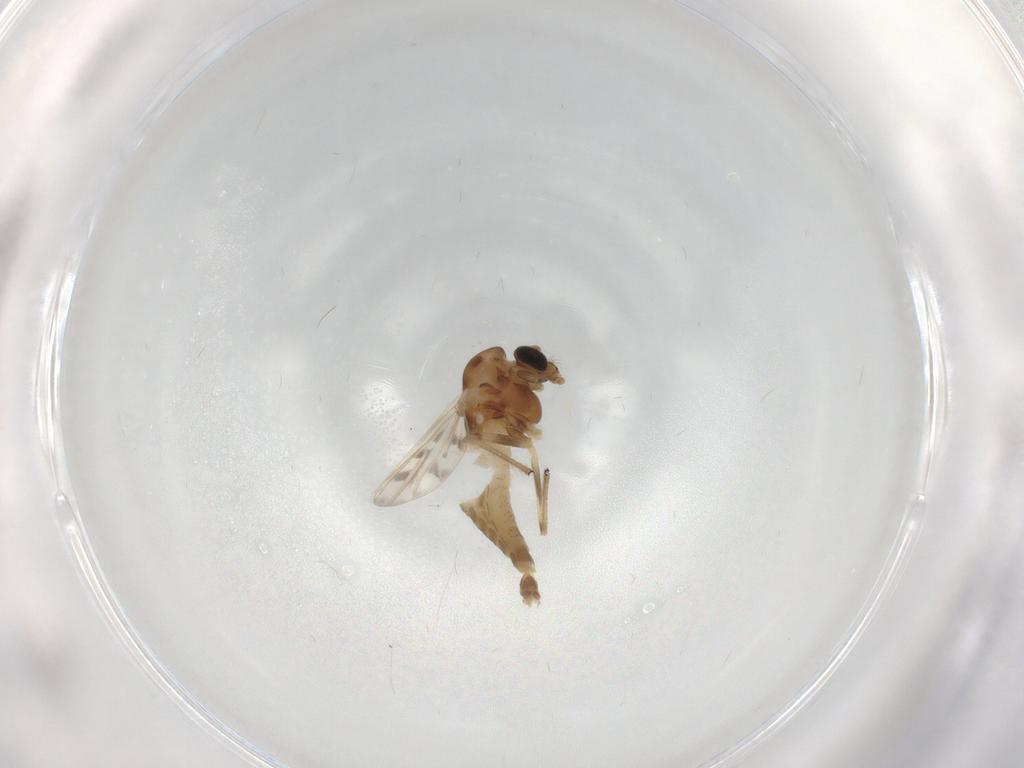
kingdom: Animalia
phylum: Arthropoda
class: Insecta
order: Diptera
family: Chironomidae
